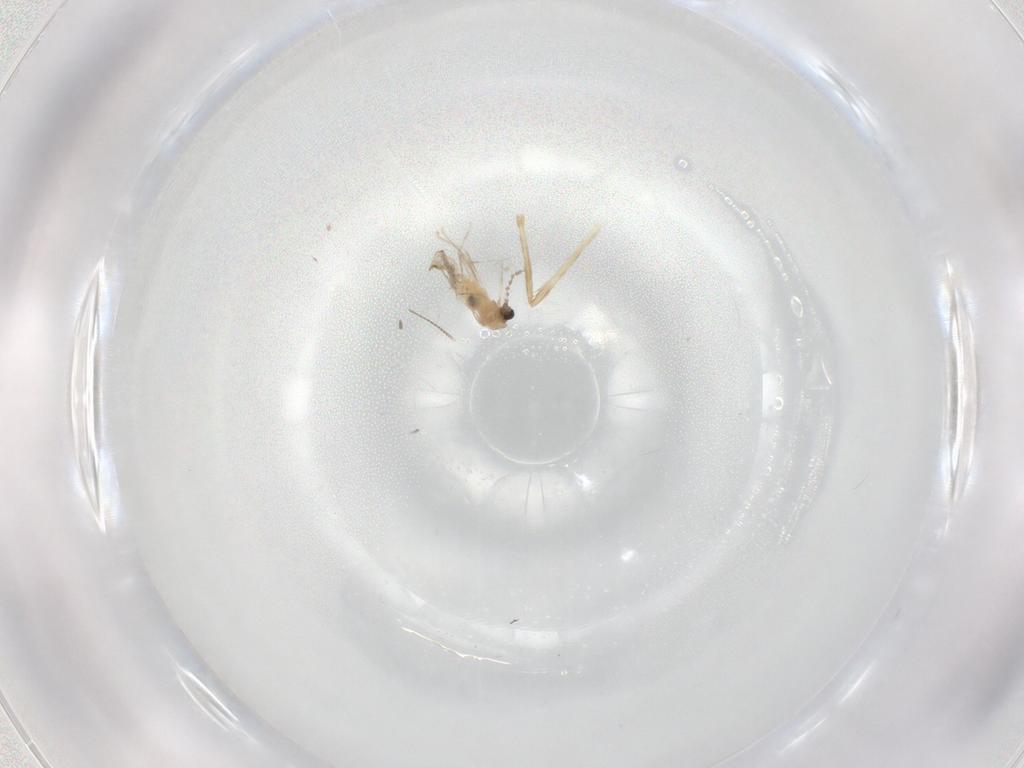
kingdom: Animalia
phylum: Arthropoda
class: Insecta
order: Diptera
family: Chironomidae
